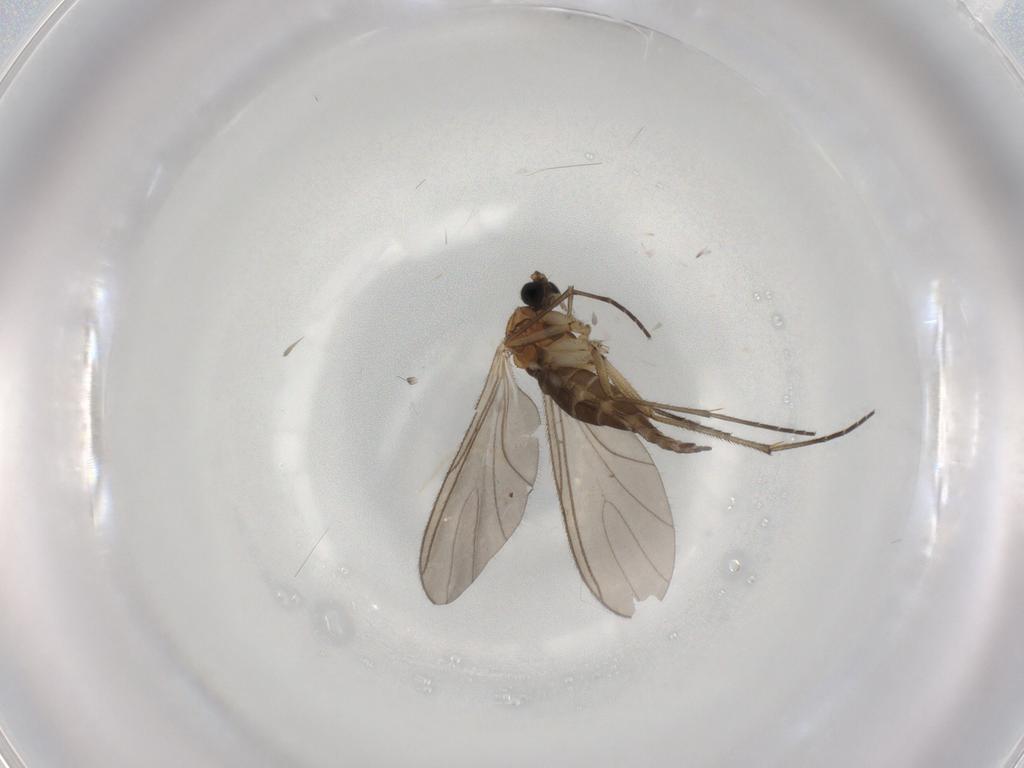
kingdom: Animalia
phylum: Arthropoda
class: Insecta
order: Diptera
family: Sciaridae
